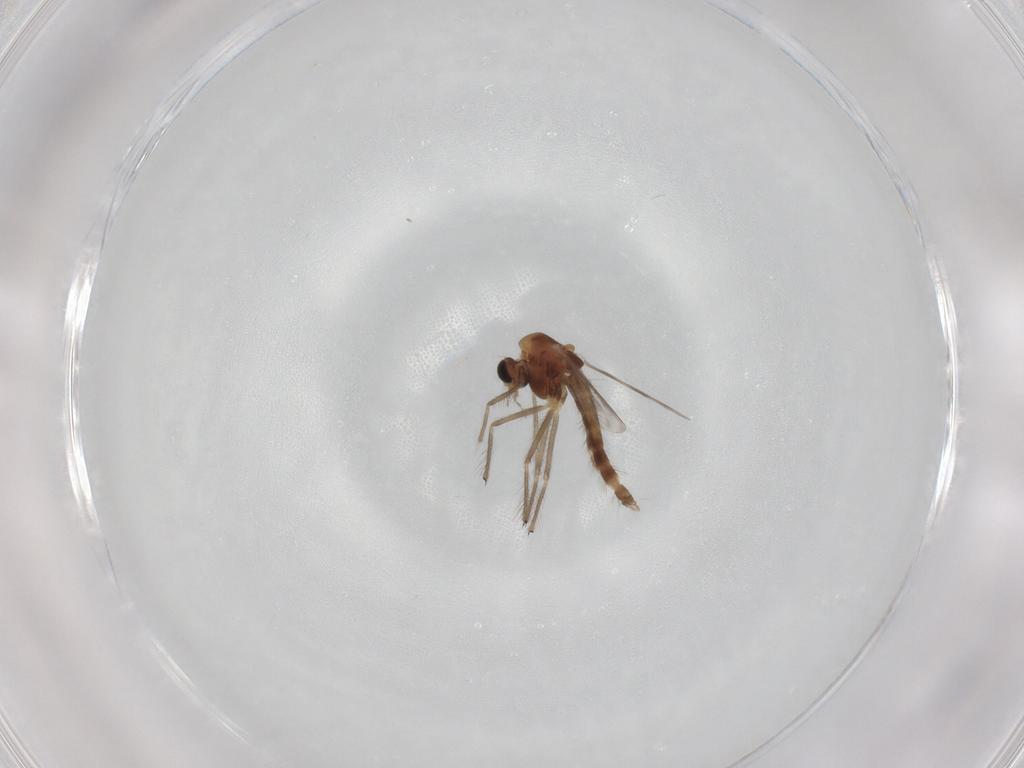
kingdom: Animalia
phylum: Arthropoda
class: Insecta
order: Diptera
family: Chironomidae
